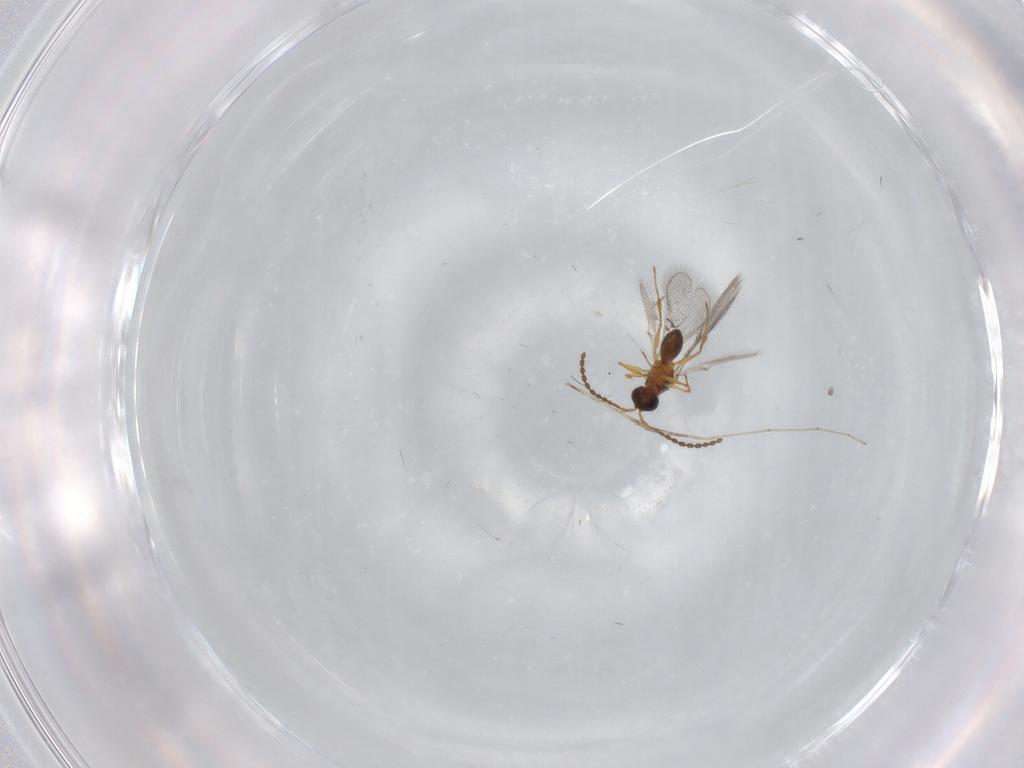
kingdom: Animalia
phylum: Arthropoda
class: Insecta
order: Hymenoptera
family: Figitidae
